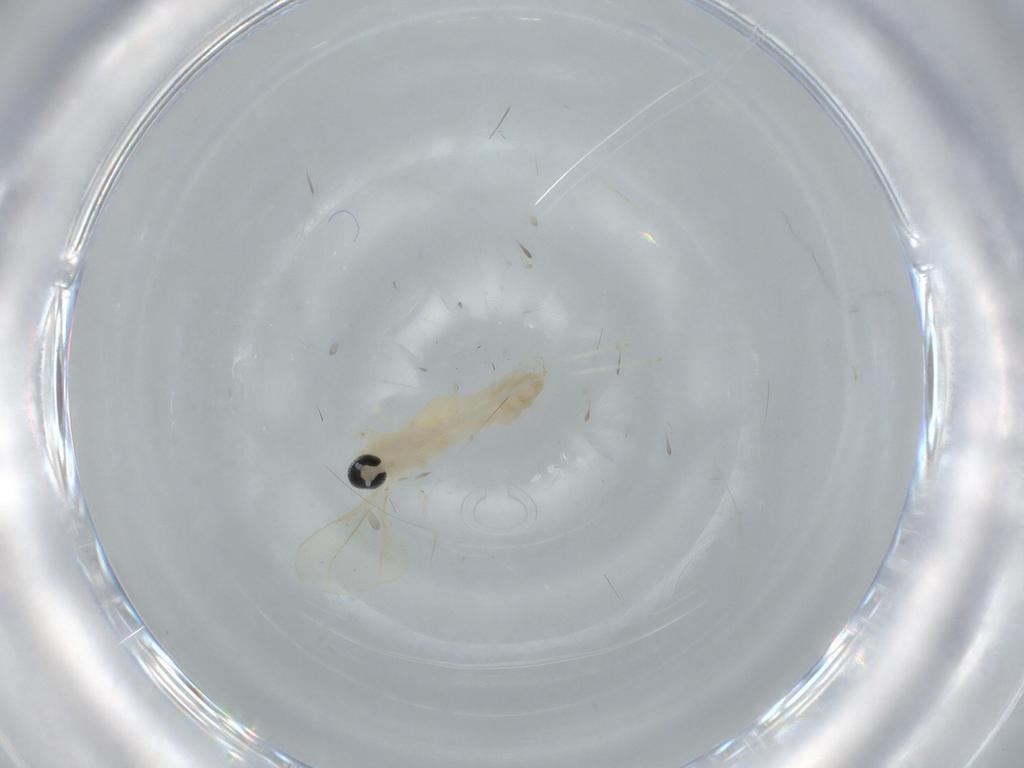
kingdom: Animalia
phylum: Arthropoda
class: Insecta
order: Diptera
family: Cecidomyiidae
